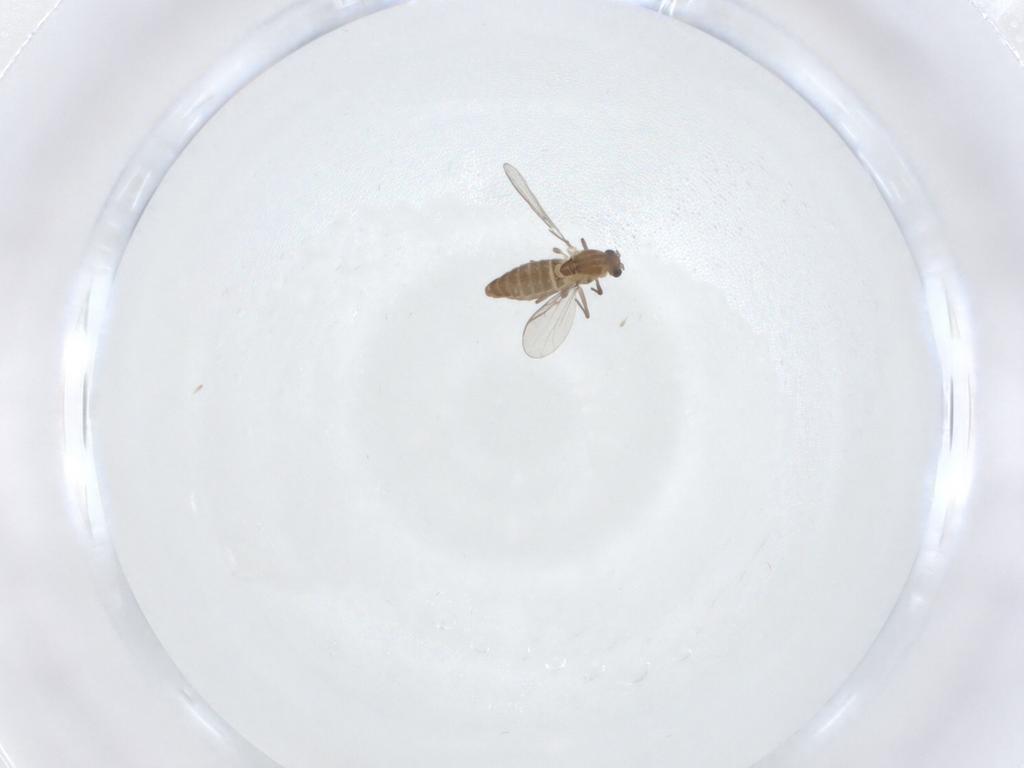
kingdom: Animalia
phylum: Arthropoda
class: Insecta
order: Diptera
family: Chironomidae
